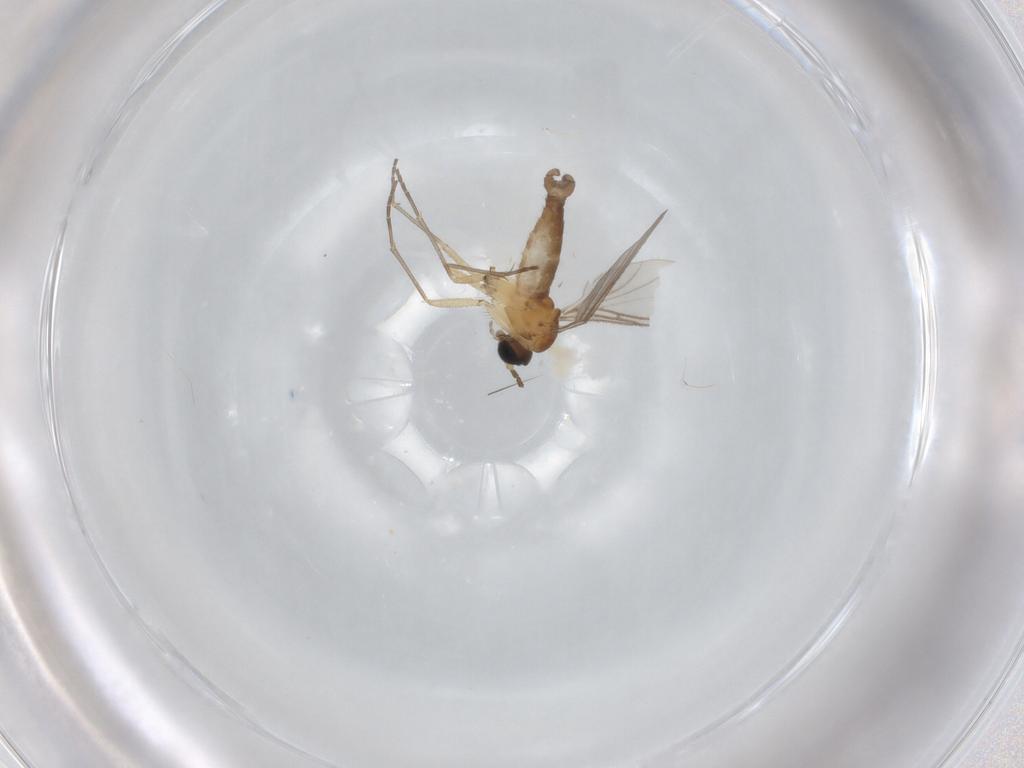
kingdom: Animalia
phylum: Arthropoda
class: Insecta
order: Diptera
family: Sciaridae
